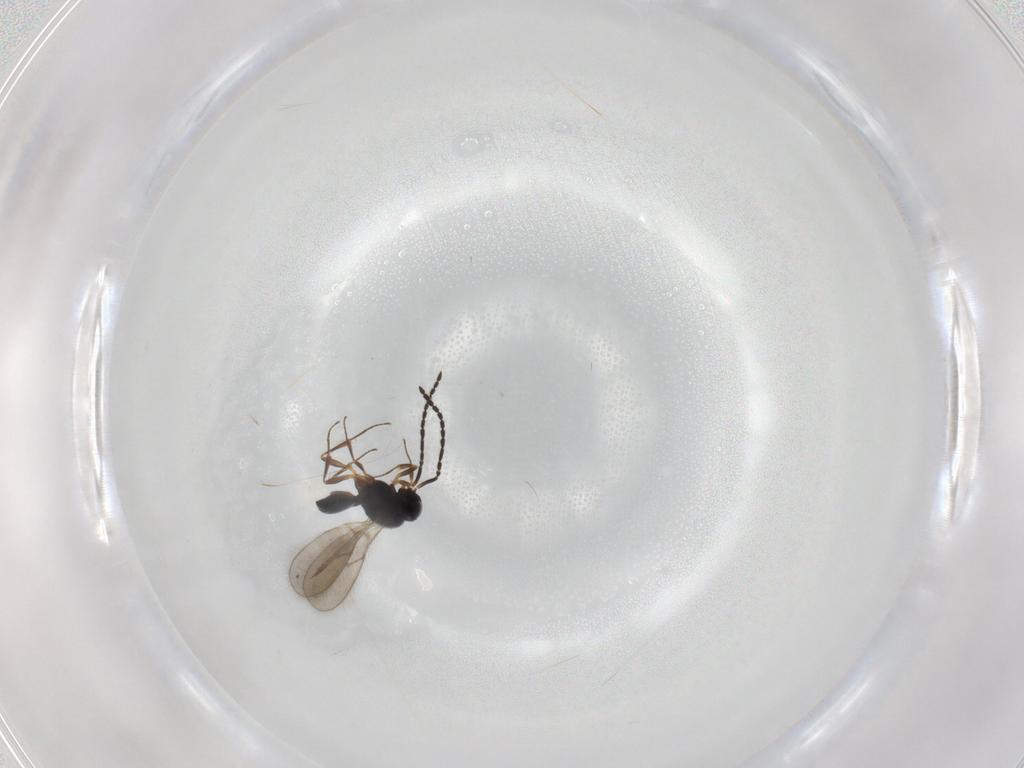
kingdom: Animalia
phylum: Arthropoda
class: Insecta
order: Hymenoptera
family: Scelionidae
